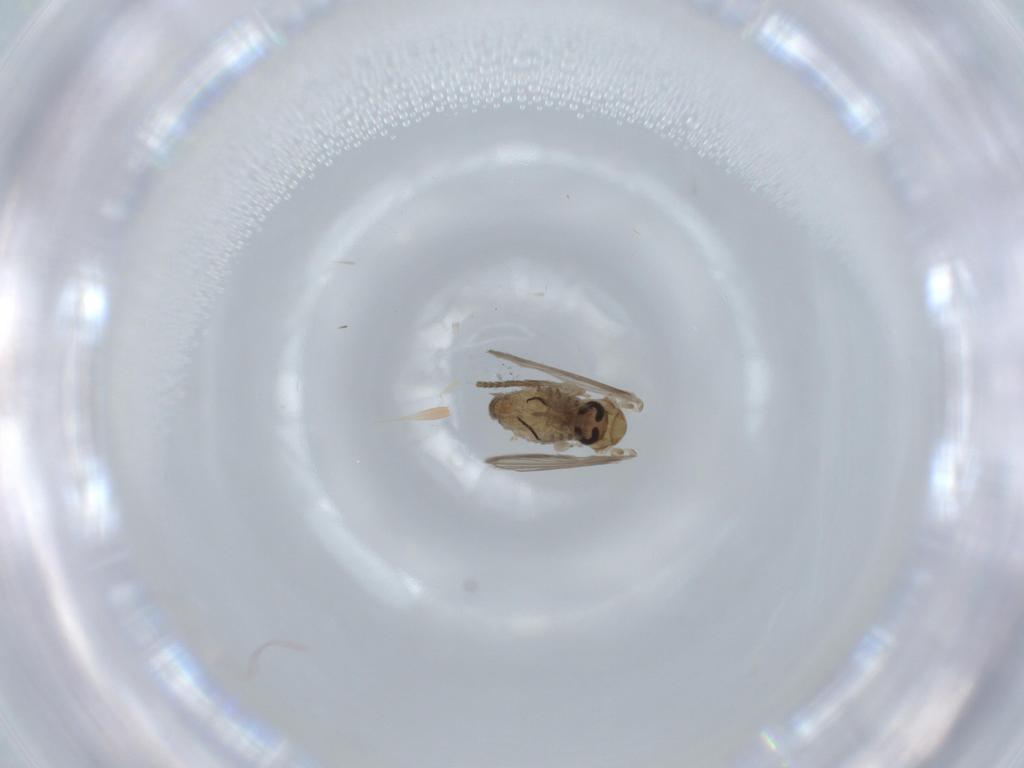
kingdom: Animalia
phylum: Arthropoda
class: Insecta
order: Diptera
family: Psychodidae
